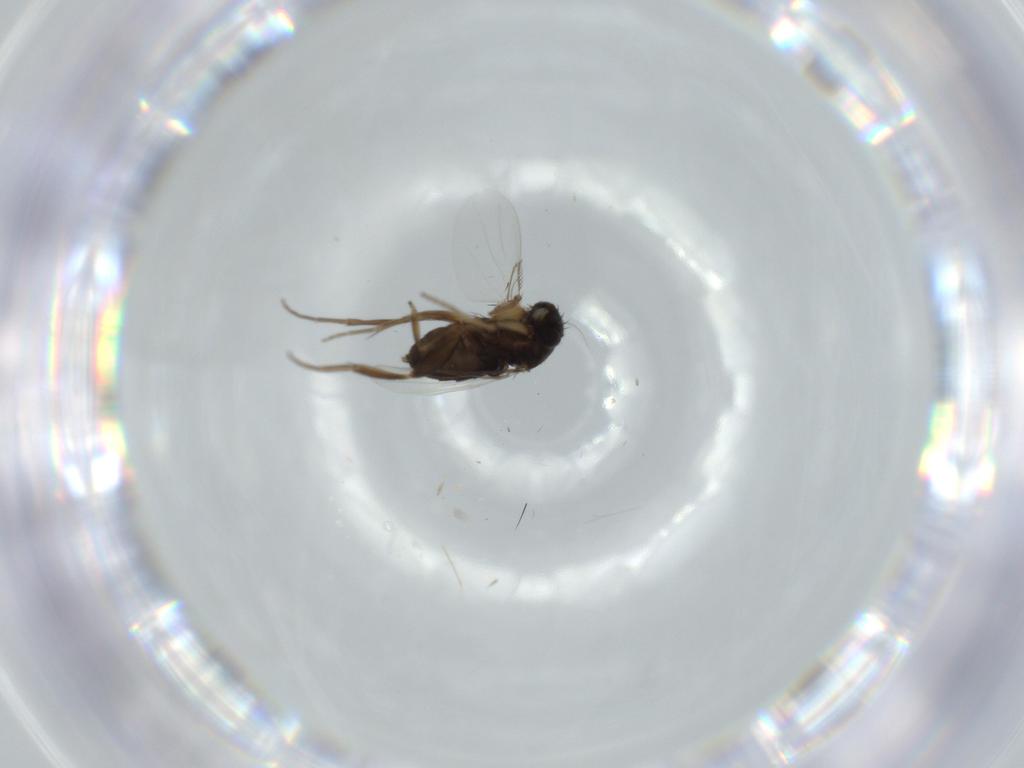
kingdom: Animalia
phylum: Arthropoda
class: Insecta
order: Diptera
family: Phoridae
